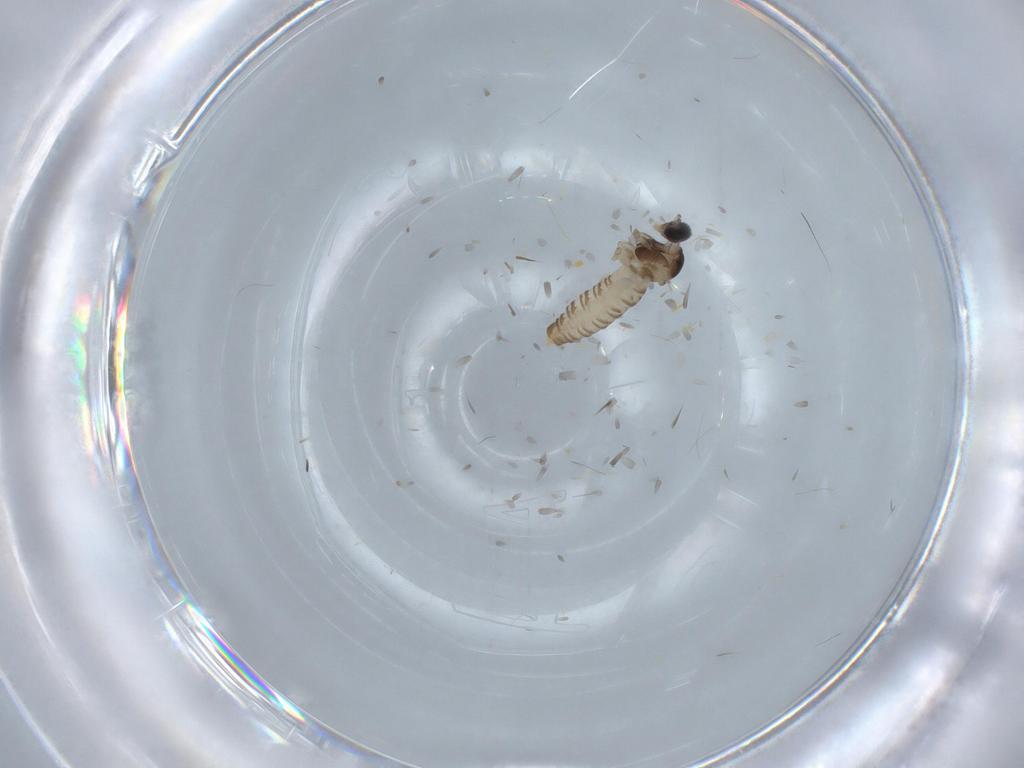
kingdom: Animalia
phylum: Arthropoda
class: Insecta
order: Diptera
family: Cecidomyiidae
